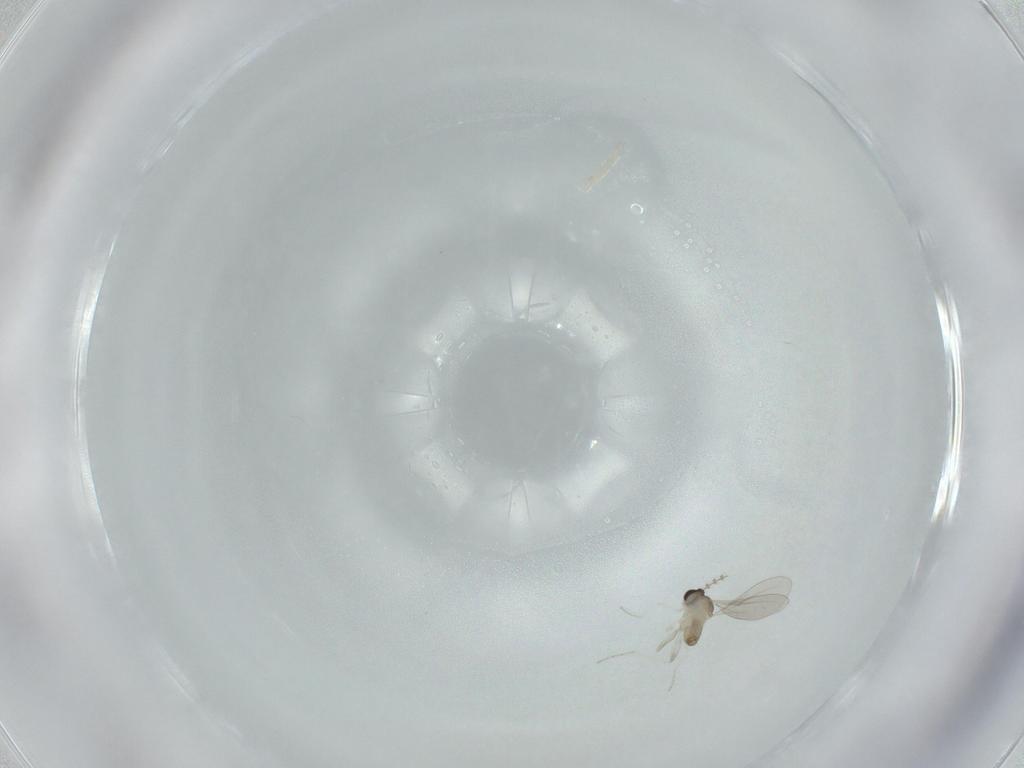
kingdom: Animalia
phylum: Arthropoda
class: Insecta
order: Diptera
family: Cecidomyiidae
